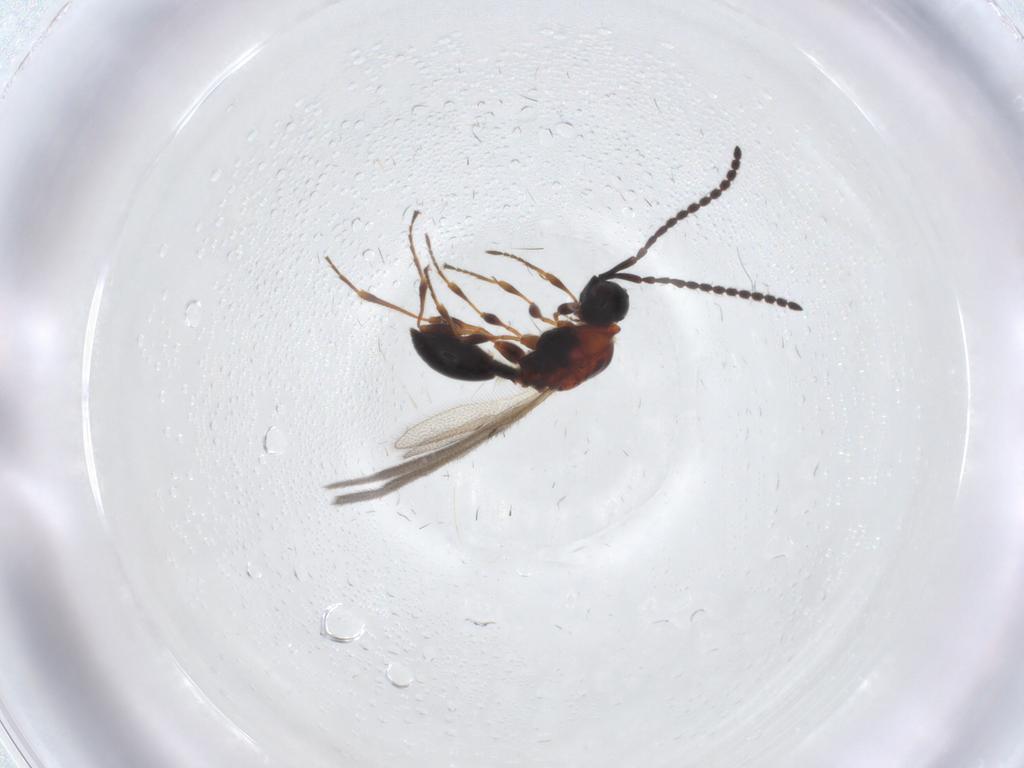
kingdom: Animalia
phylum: Arthropoda
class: Insecta
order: Hymenoptera
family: Diapriidae
